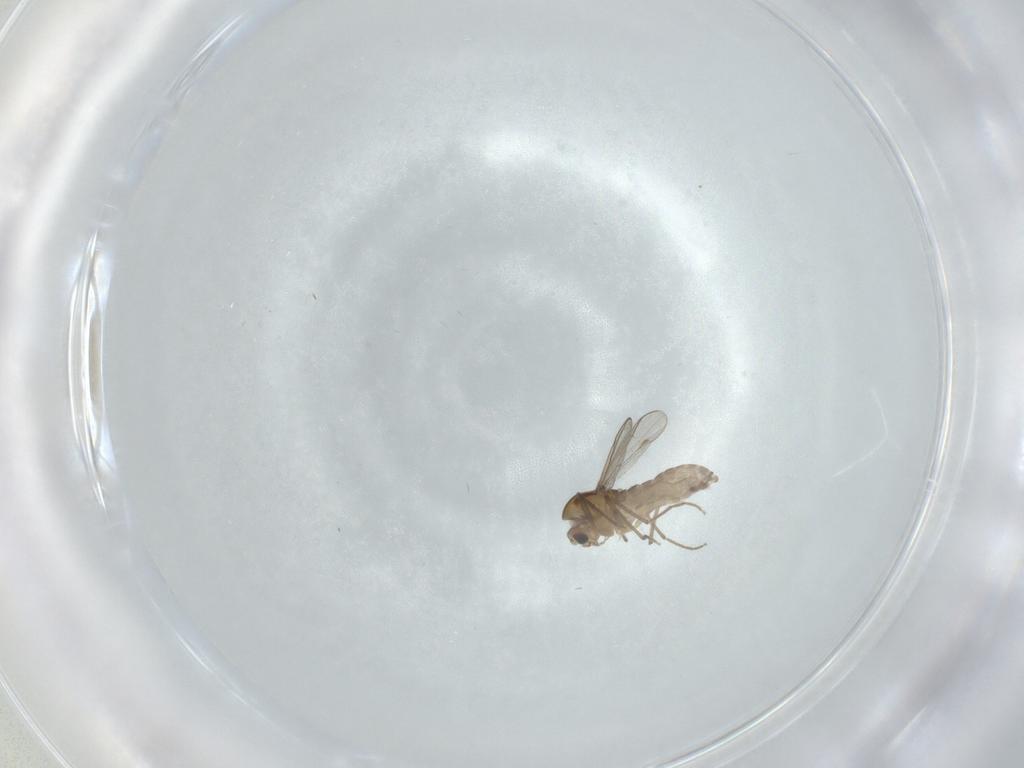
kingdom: Animalia
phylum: Arthropoda
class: Insecta
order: Diptera
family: Chironomidae
